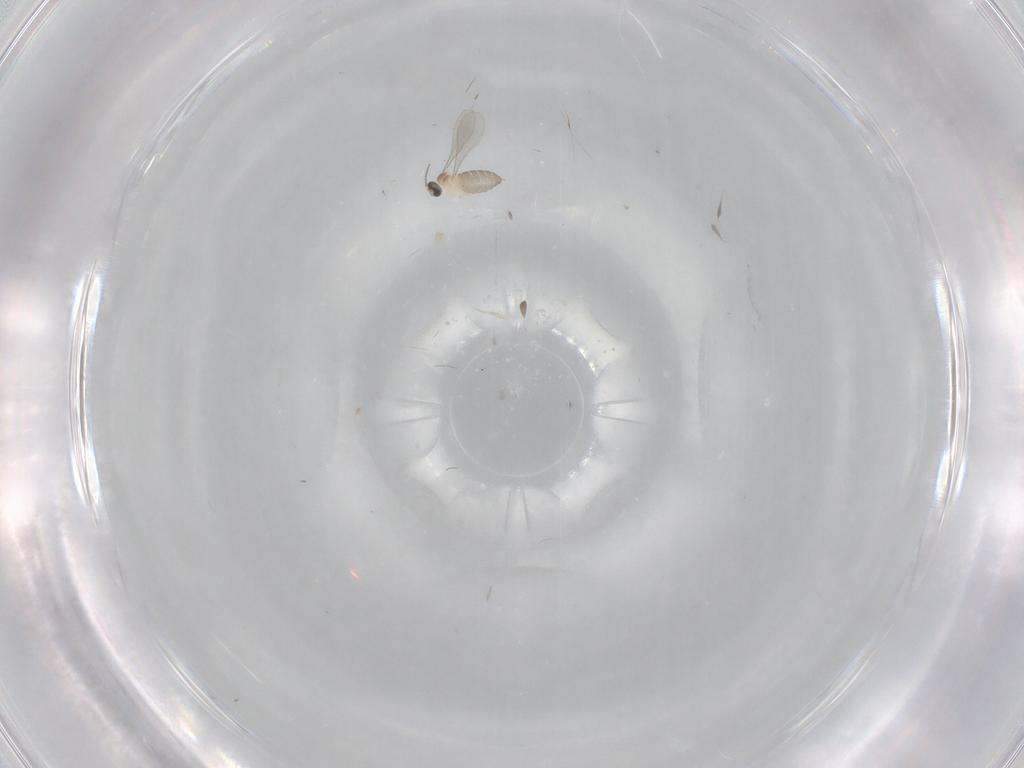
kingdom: Animalia
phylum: Arthropoda
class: Insecta
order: Diptera
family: Cecidomyiidae
